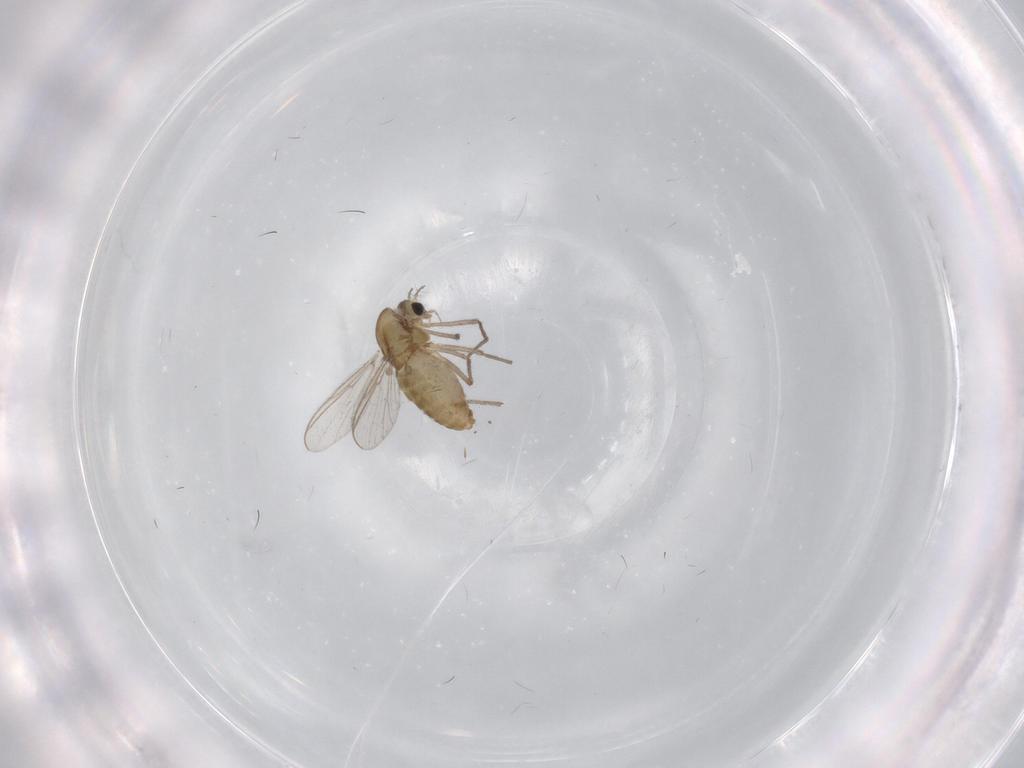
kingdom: Animalia
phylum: Arthropoda
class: Insecta
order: Diptera
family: Chironomidae
